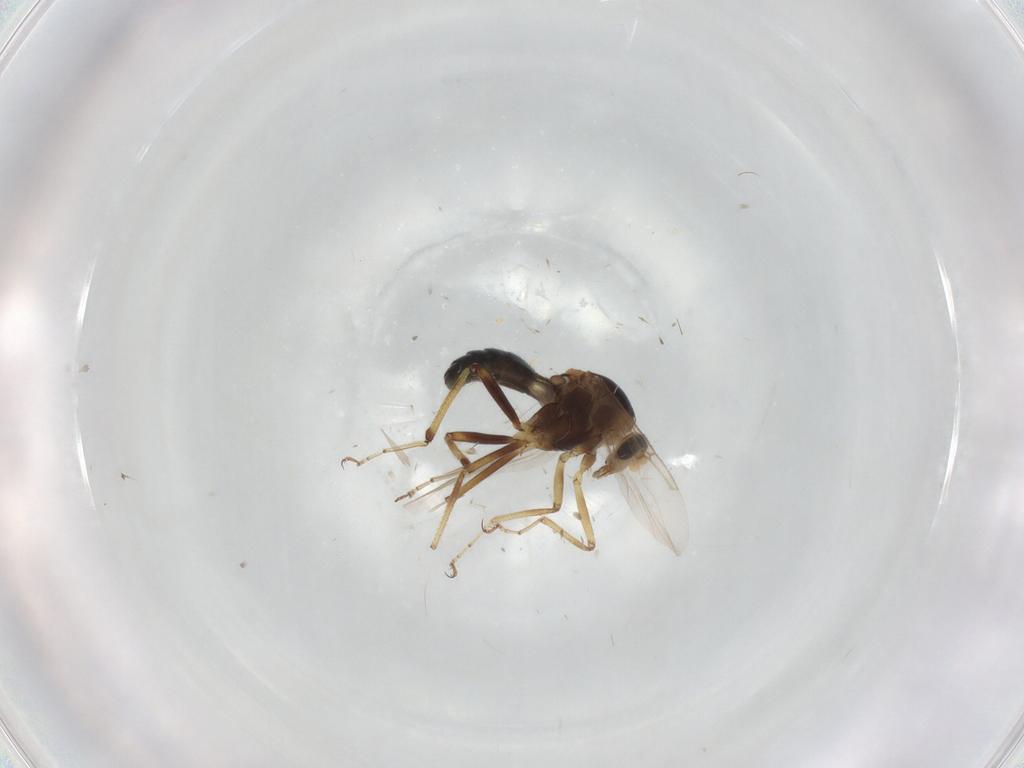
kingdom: Animalia
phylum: Arthropoda
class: Insecta
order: Diptera
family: Ceratopogonidae
